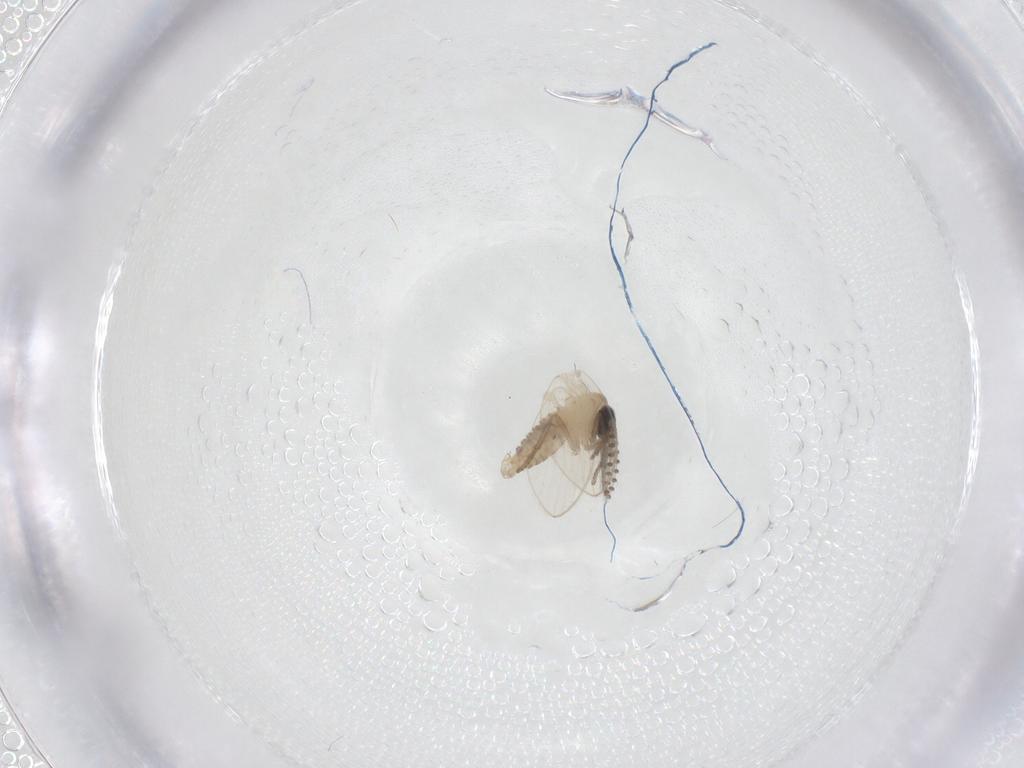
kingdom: Animalia
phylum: Arthropoda
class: Insecta
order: Diptera
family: Psychodidae
